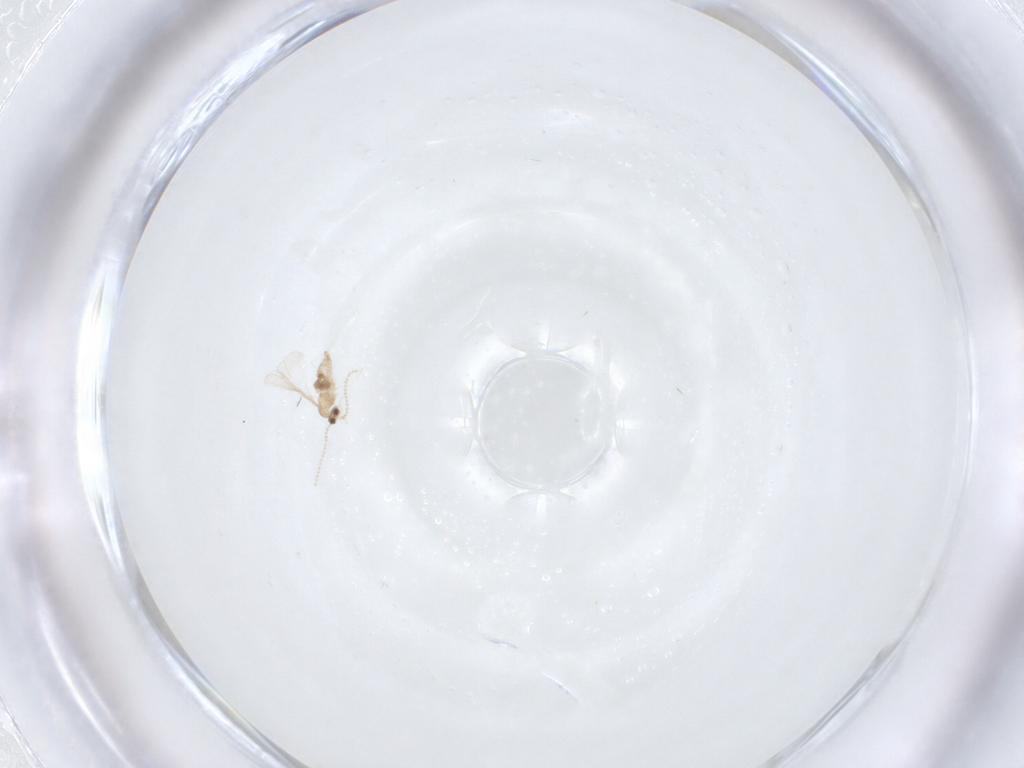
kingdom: Animalia
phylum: Arthropoda
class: Insecta
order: Diptera
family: Cecidomyiidae
